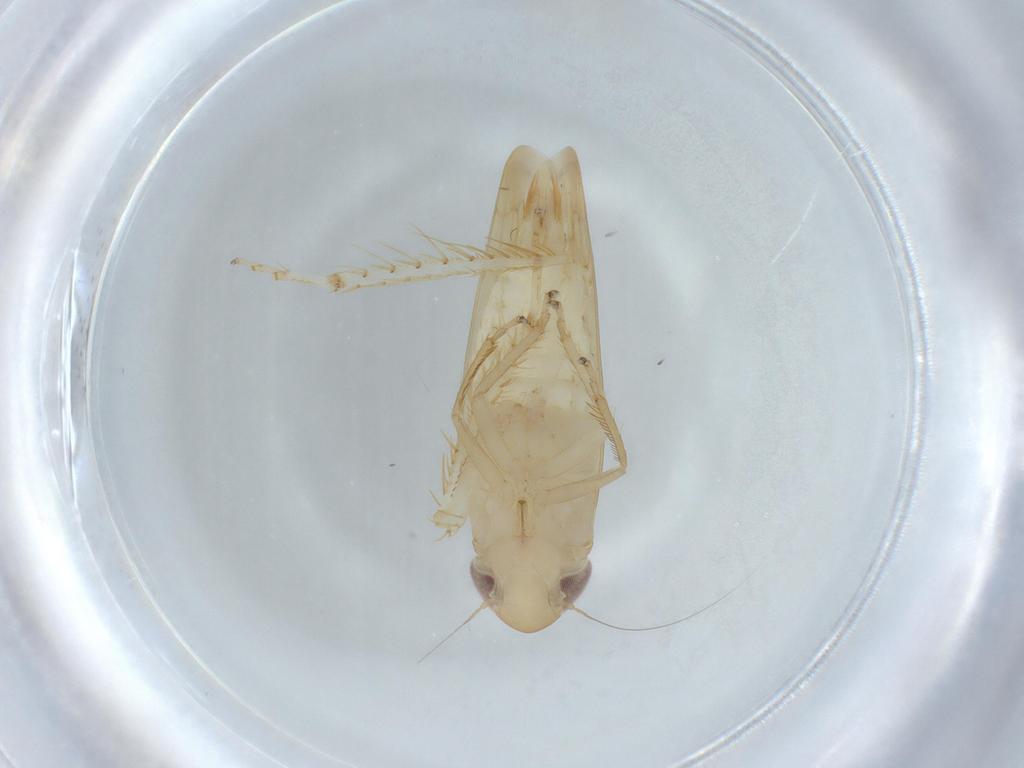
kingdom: Animalia
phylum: Arthropoda
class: Insecta
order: Hemiptera
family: Cicadellidae
